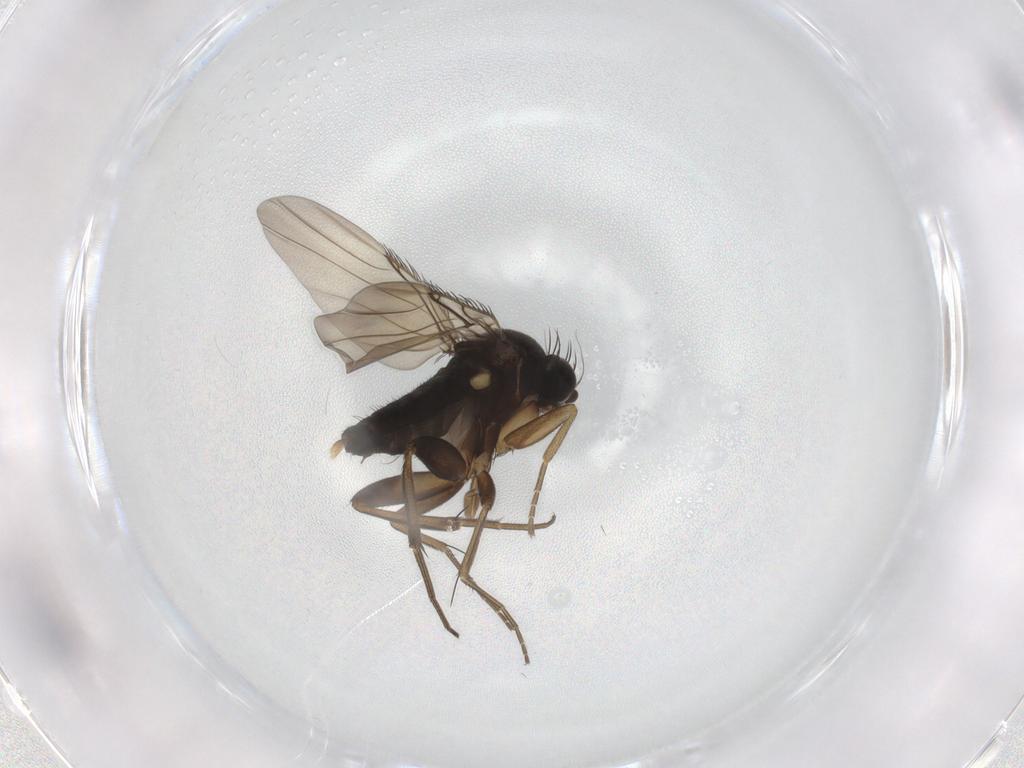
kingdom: Animalia
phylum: Arthropoda
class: Insecta
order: Diptera
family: Phoridae
